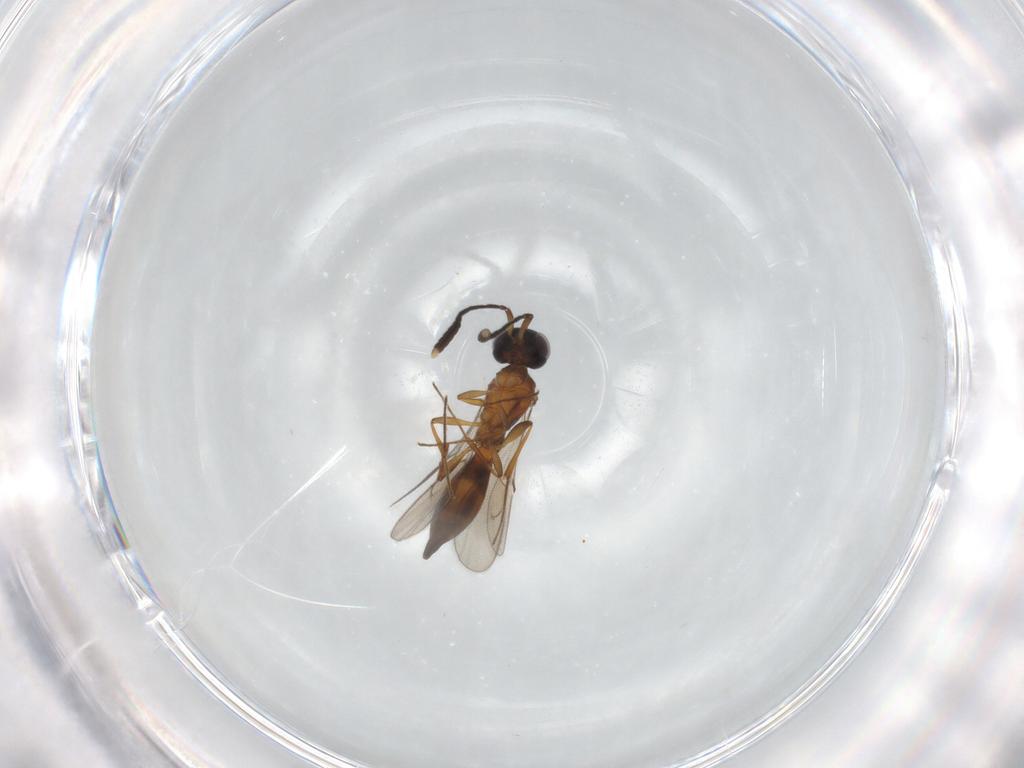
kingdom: Animalia
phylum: Arthropoda
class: Insecta
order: Hymenoptera
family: Scelionidae
